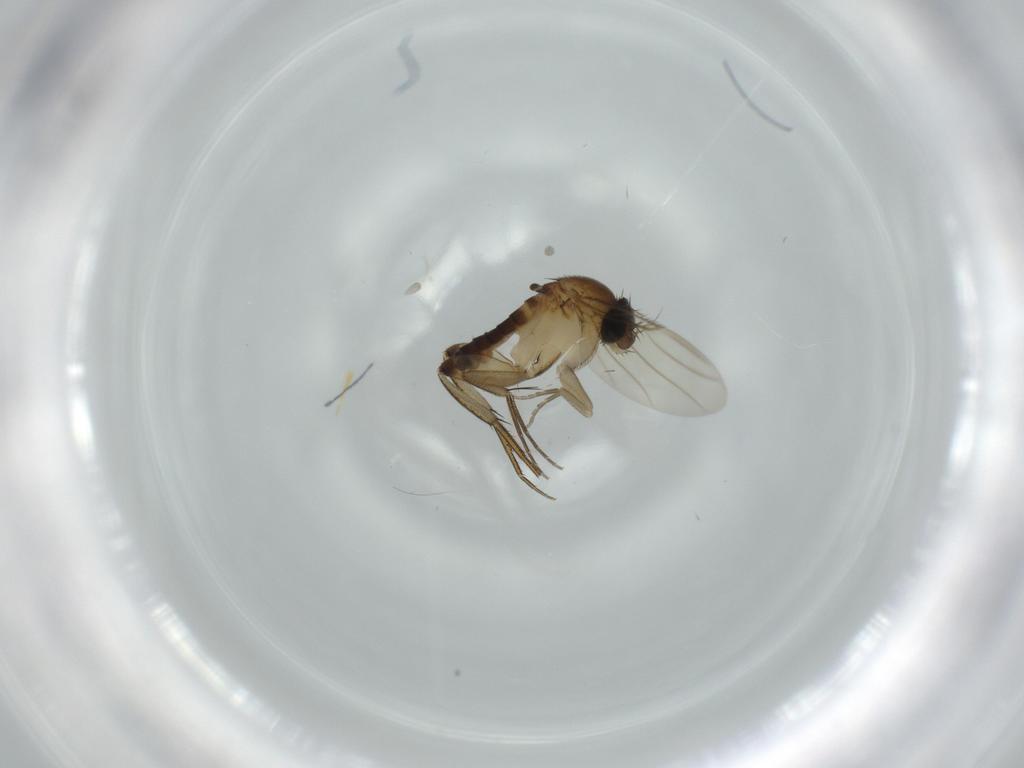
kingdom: Animalia
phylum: Arthropoda
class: Insecta
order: Diptera
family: Phoridae
